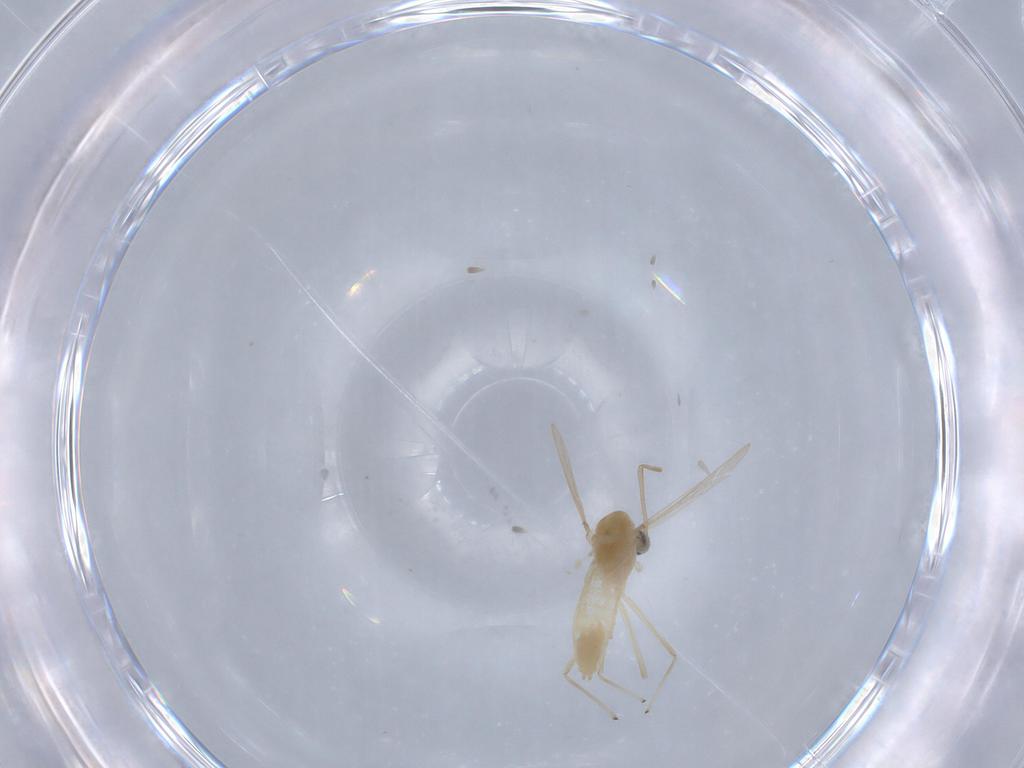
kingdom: Animalia
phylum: Arthropoda
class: Insecta
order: Diptera
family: Chironomidae
